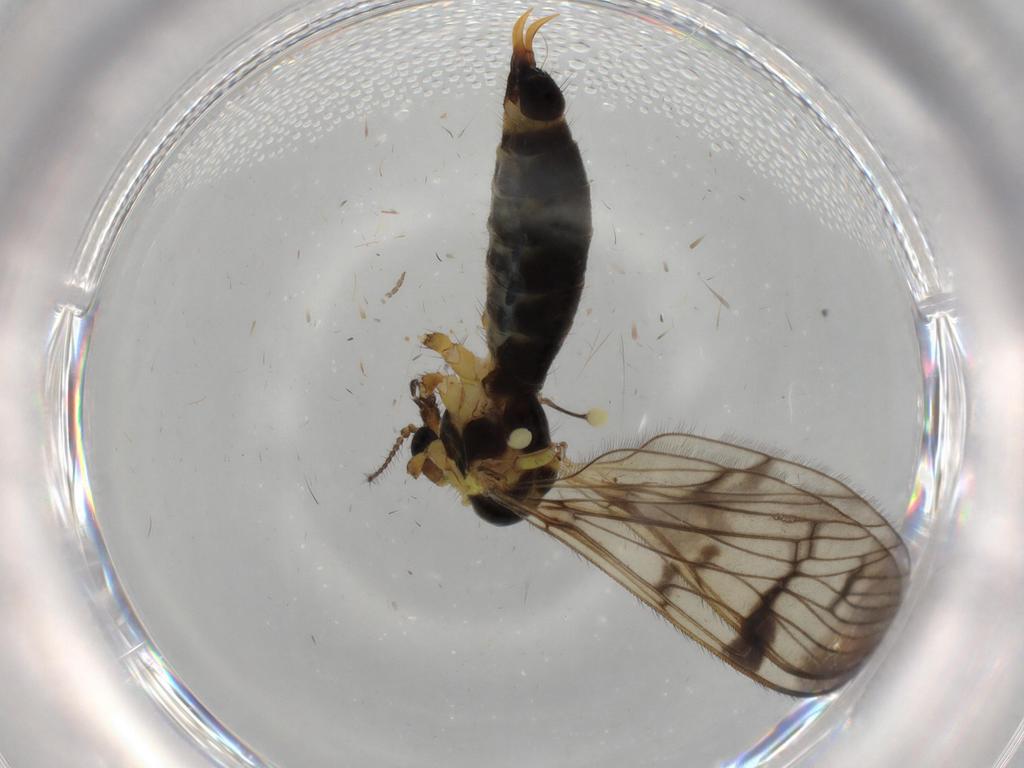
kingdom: Animalia
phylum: Arthropoda
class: Insecta
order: Diptera
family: Limoniidae
